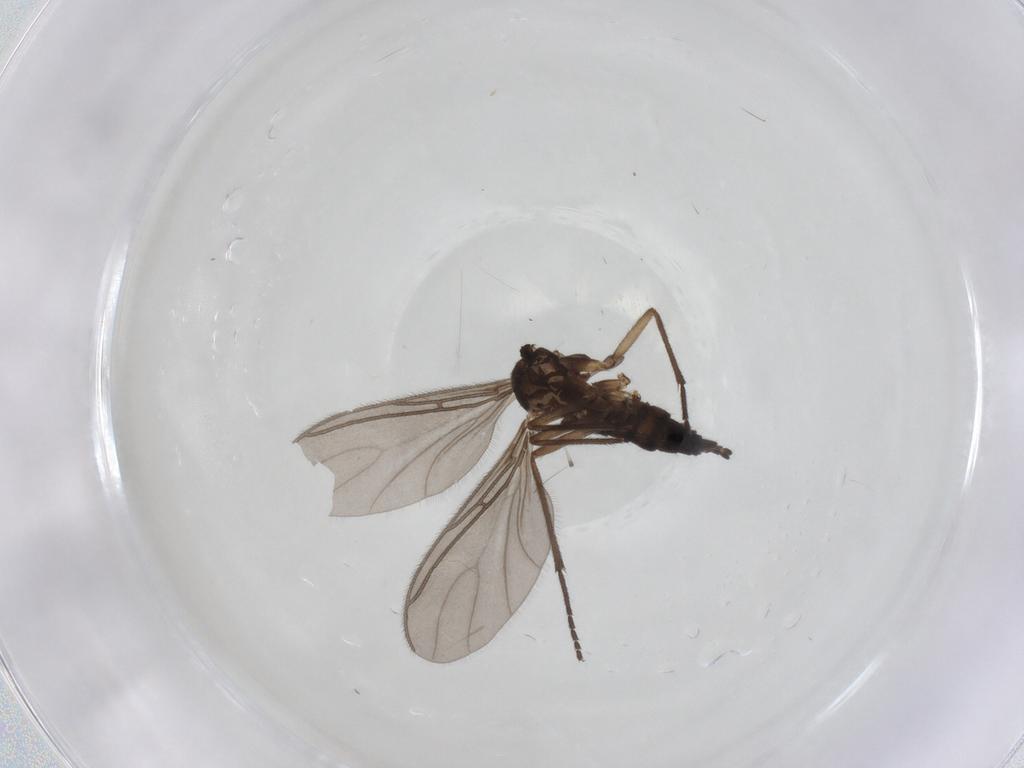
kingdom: Animalia
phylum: Arthropoda
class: Insecta
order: Diptera
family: Sciaridae
